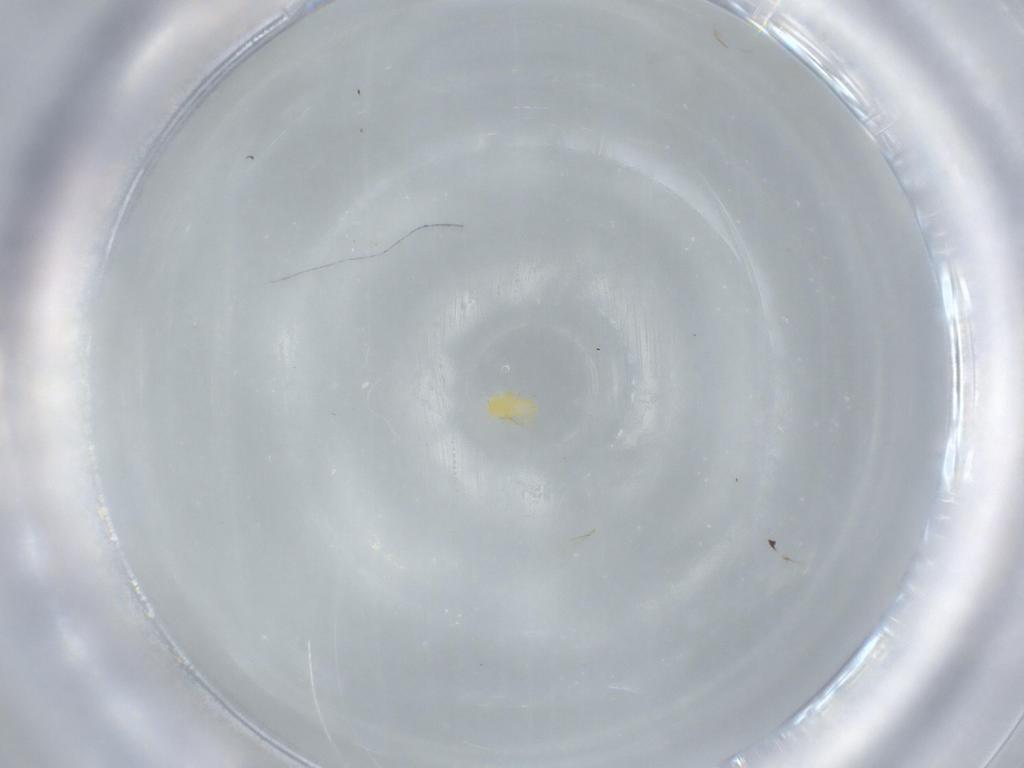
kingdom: Animalia
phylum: Arthropoda
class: Insecta
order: Hymenoptera
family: Trichogrammatidae
